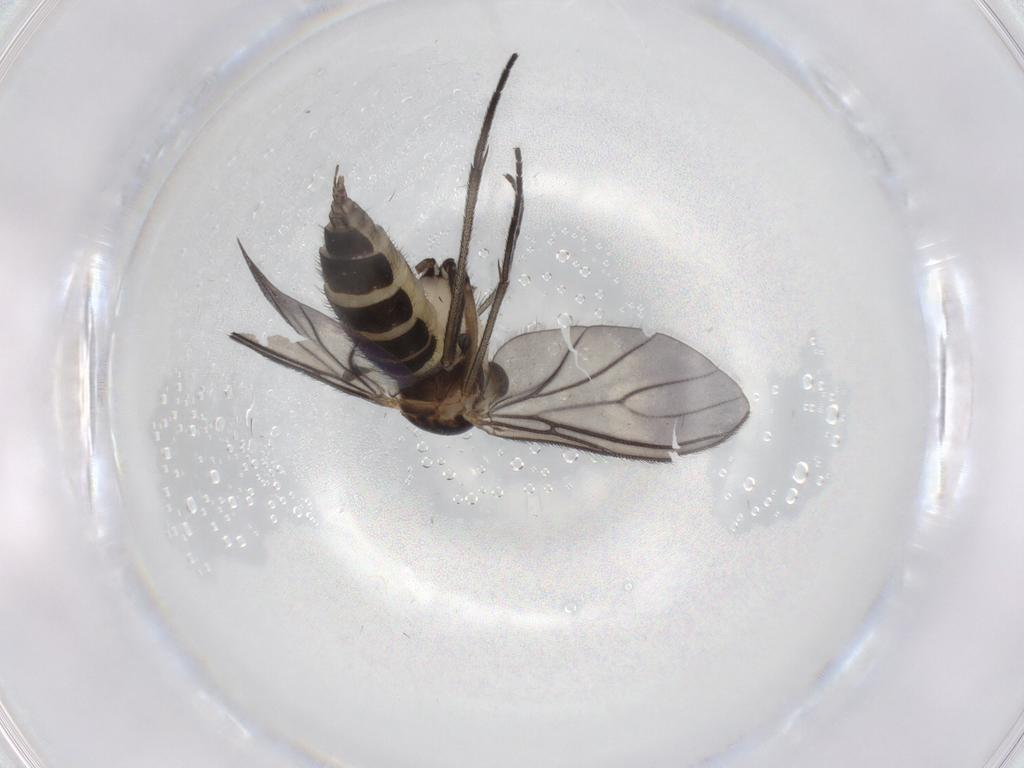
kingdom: Animalia
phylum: Arthropoda
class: Insecta
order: Diptera
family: Sciaridae
